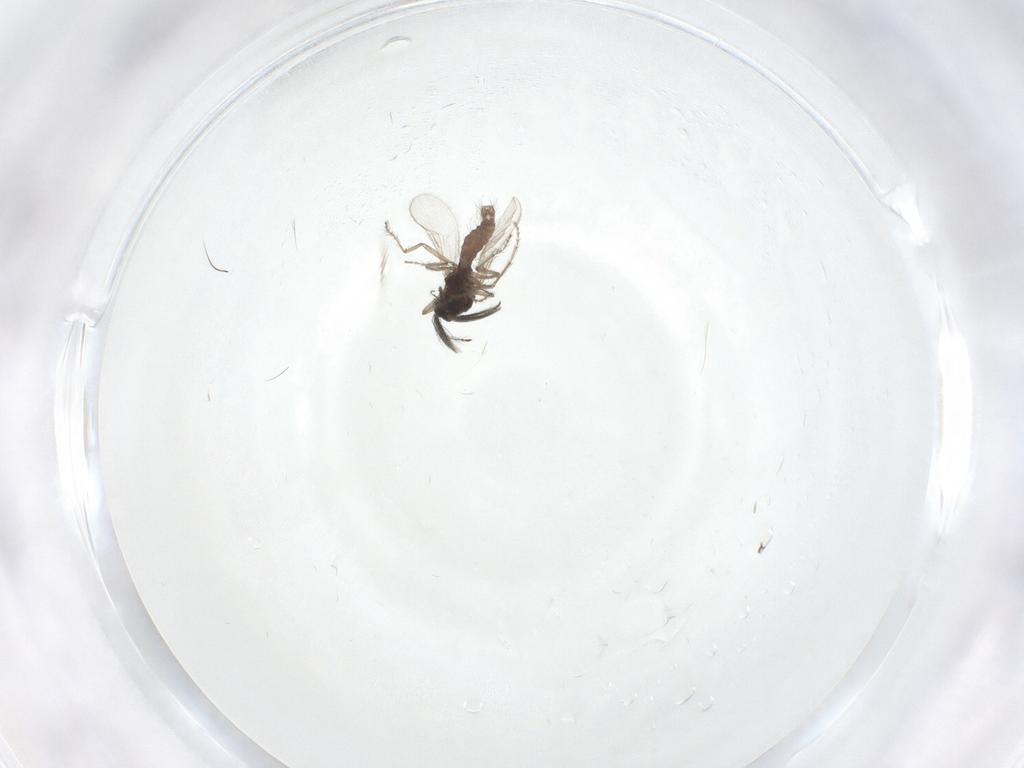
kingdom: Animalia
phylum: Arthropoda
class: Insecta
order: Diptera
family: Ceratopogonidae
